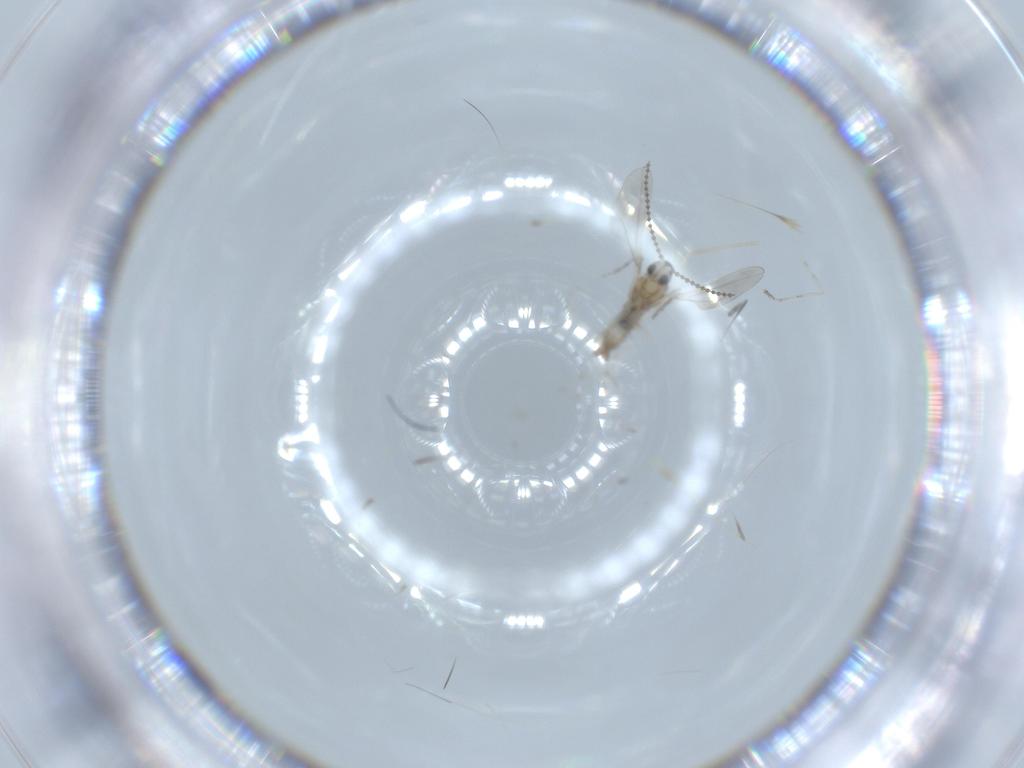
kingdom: Animalia
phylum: Arthropoda
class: Insecta
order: Diptera
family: Cecidomyiidae
